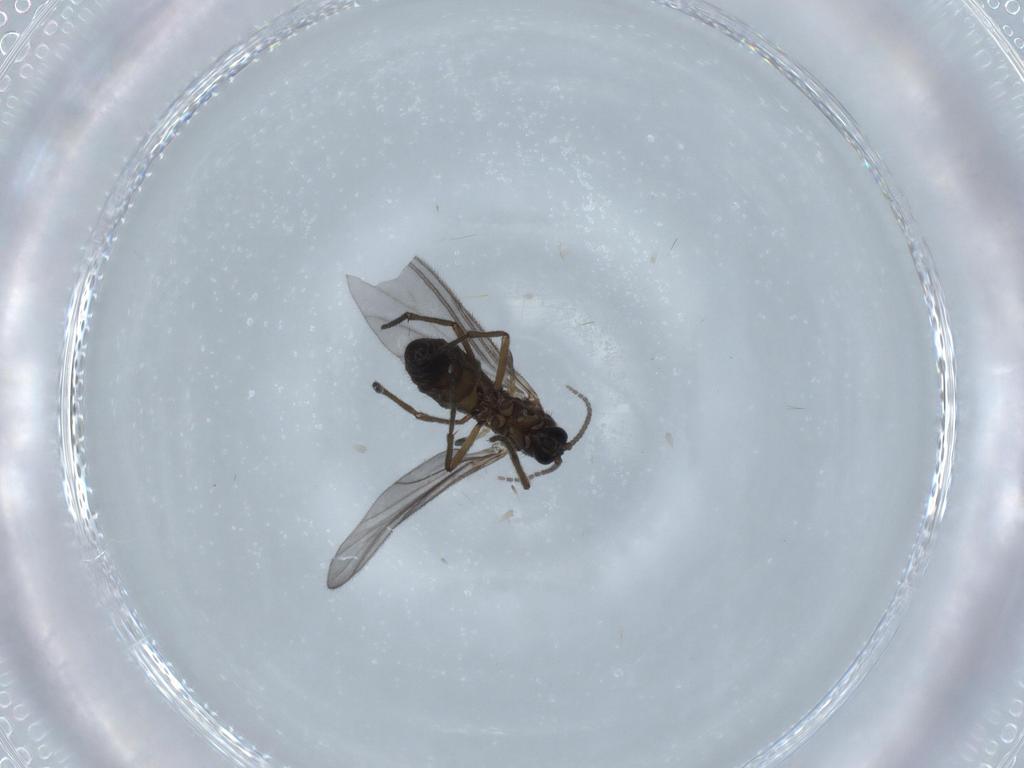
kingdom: Animalia
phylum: Arthropoda
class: Insecta
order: Diptera
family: Sciaridae
